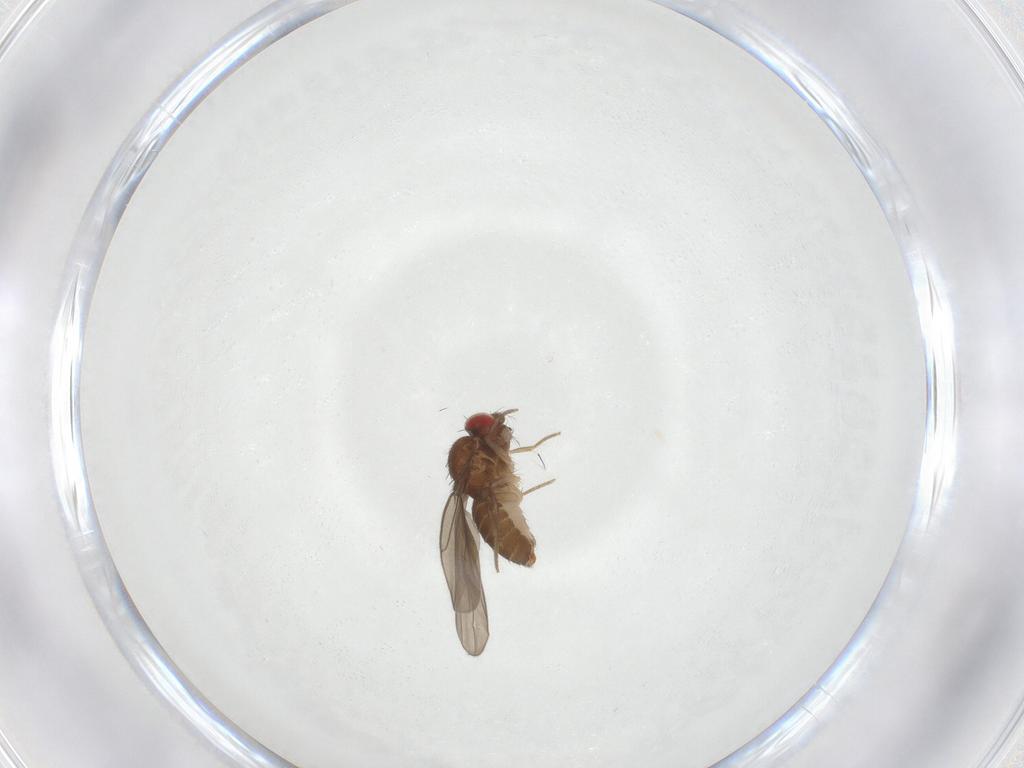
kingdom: Animalia
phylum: Arthropoda
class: Insecta
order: Diptera
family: Drosophilidae
